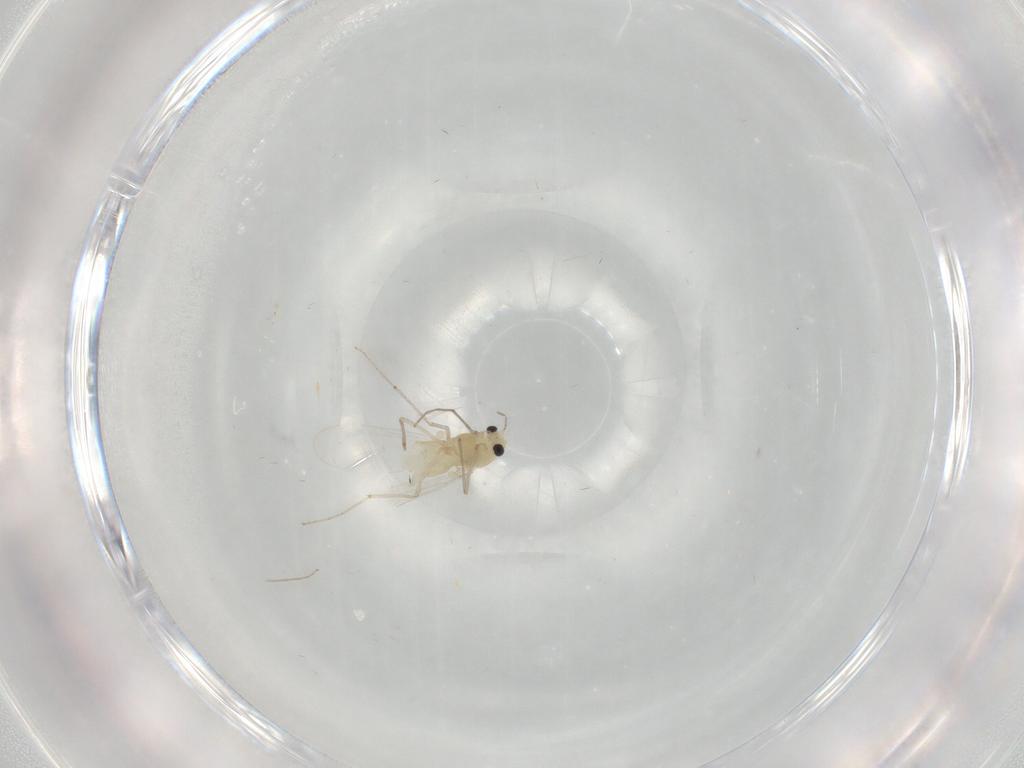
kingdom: Animalia
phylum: Arthropoda
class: Insecta
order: Diptera
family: Chironomidae
